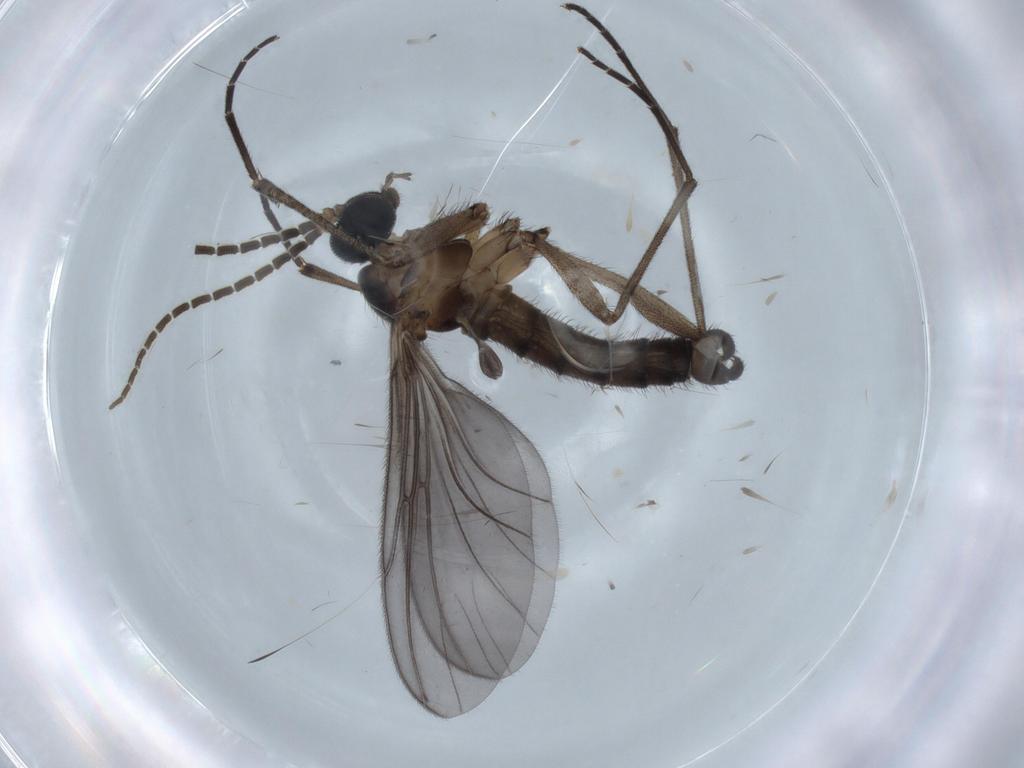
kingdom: Animalia
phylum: Arthropoda
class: Insecta
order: Diptera
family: Sciaridae
